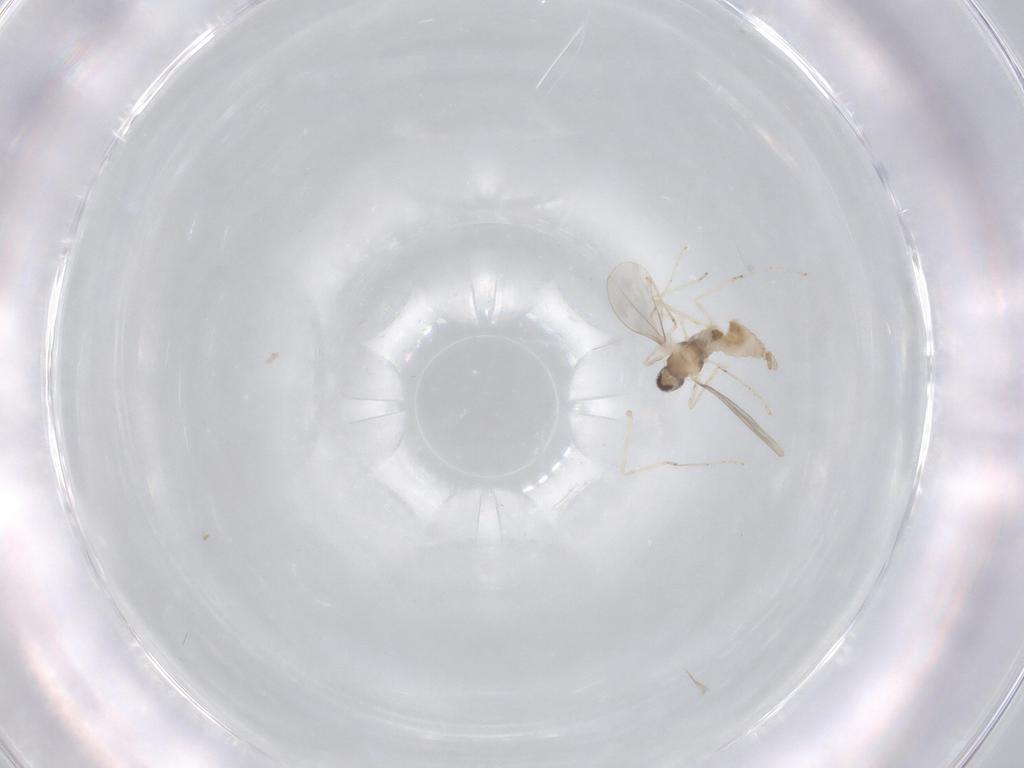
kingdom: Animalia
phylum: Arthropoda
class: Insecta
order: Diptera
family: Cecidomyiidae
